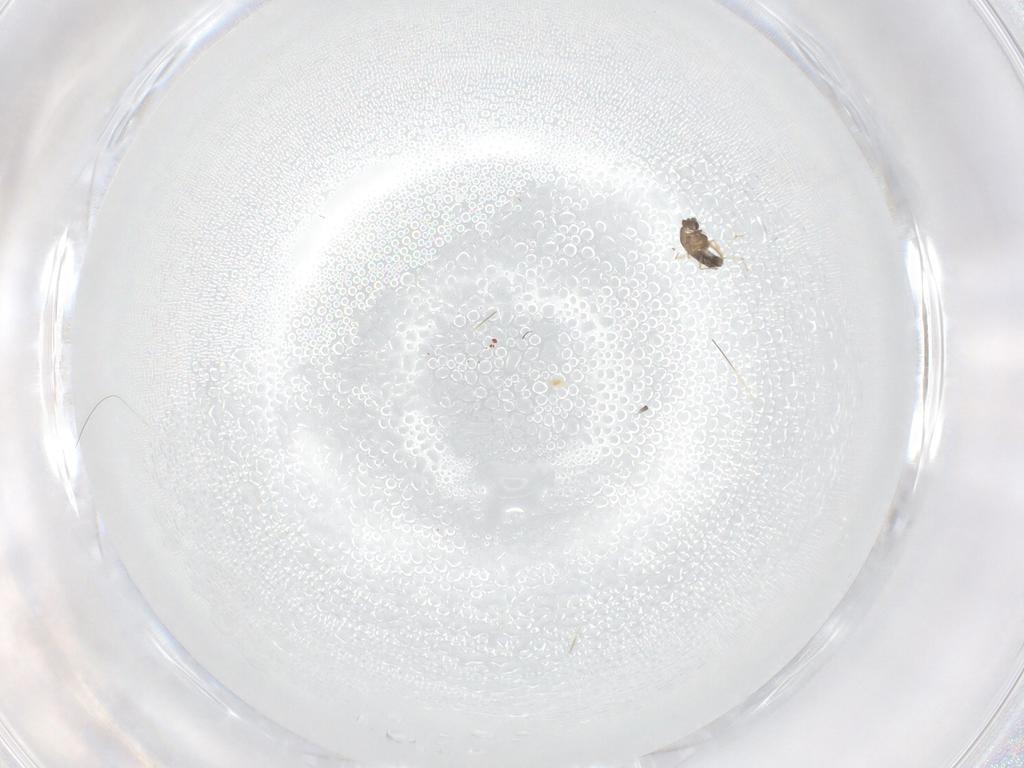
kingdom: Animalia
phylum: Arthropoda
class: Insecta
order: Diptera
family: Chironomidae
